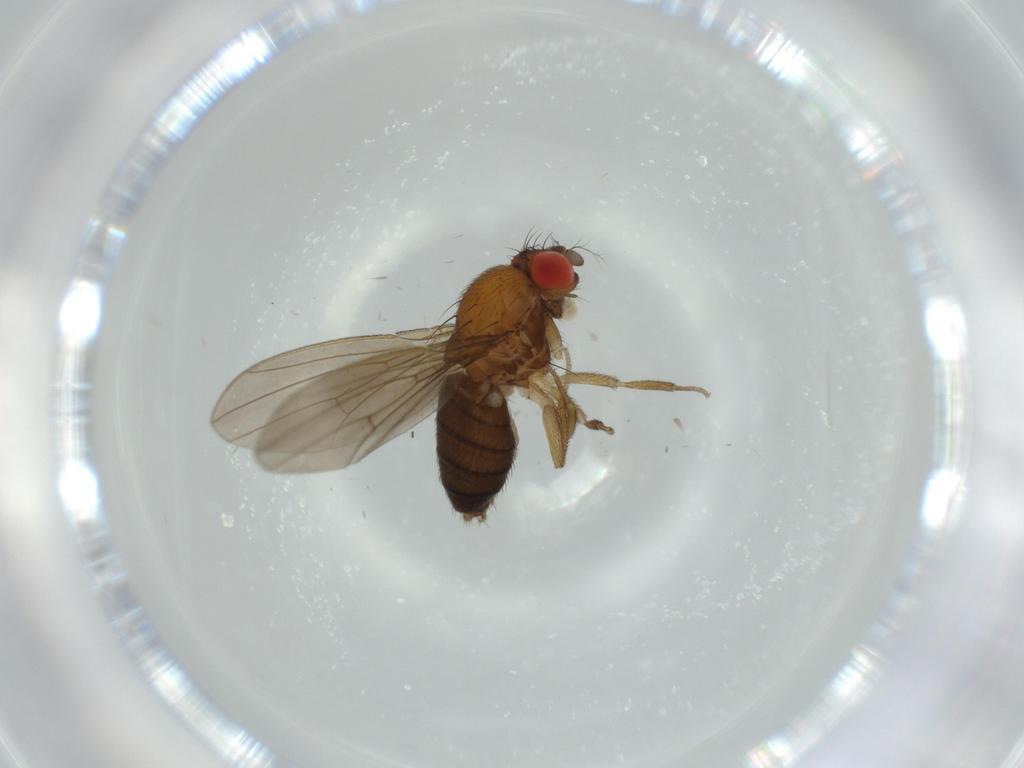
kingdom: Animalia
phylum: Arthropoda
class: Insecta
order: Diptera
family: Drosophilidae
